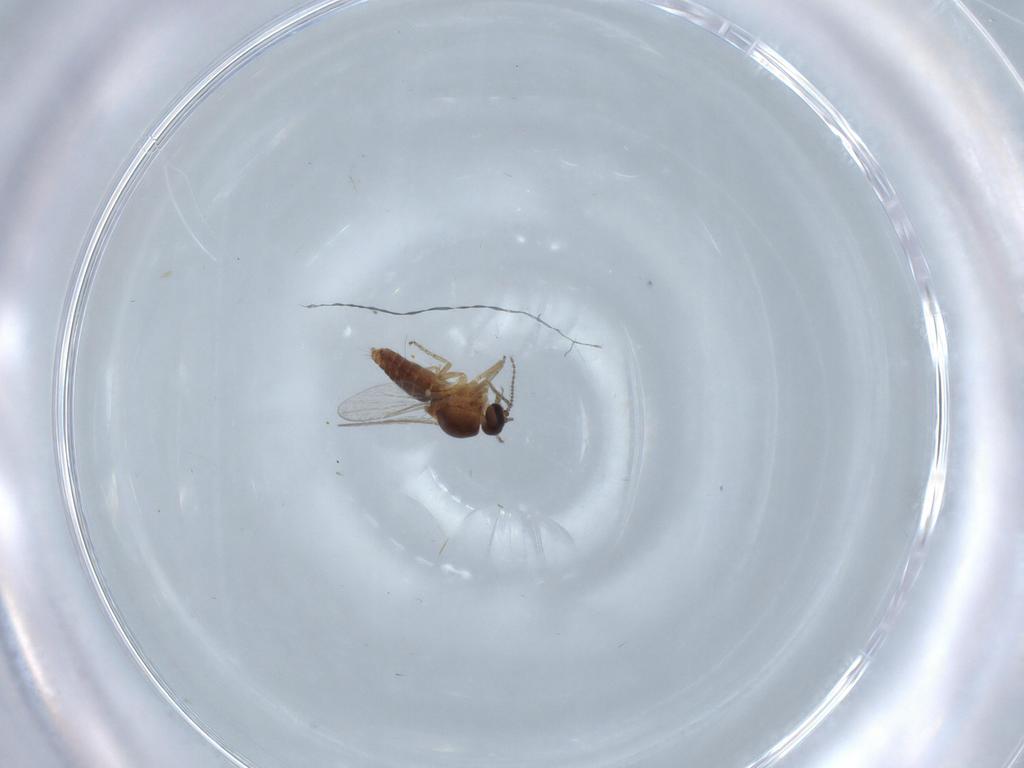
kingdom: Animalia
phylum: Arthropoda
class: Insecta
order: Diptera
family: Ceratopogonidae
